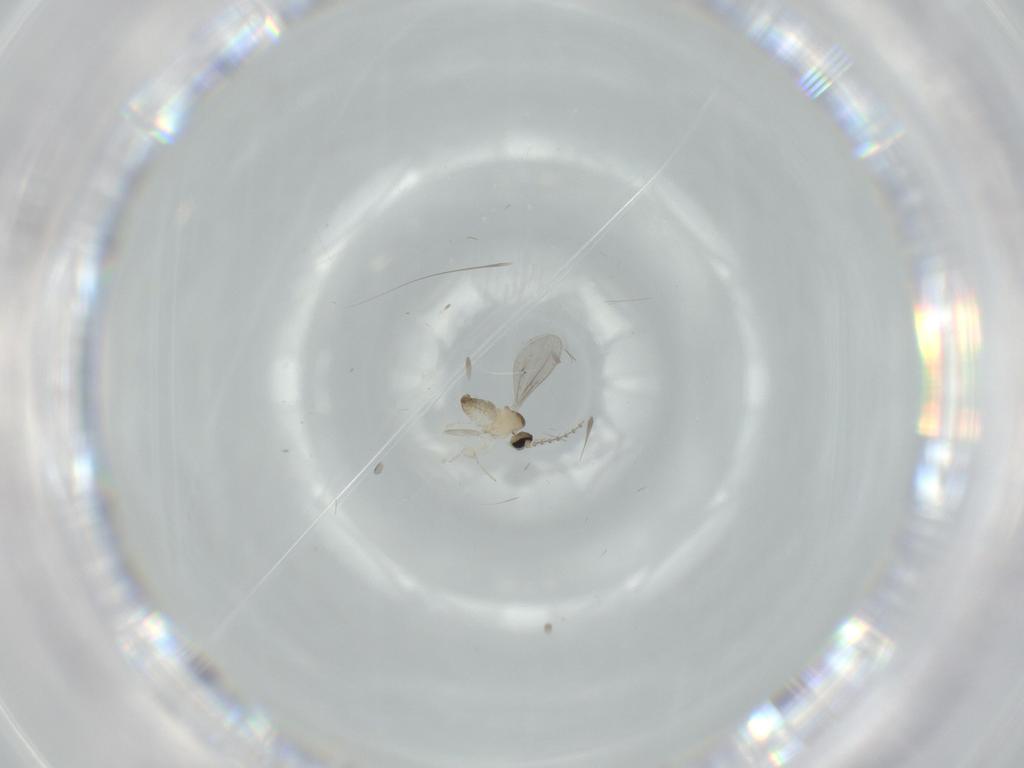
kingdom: Animalia
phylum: Arthropoda
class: Insecta
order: Diptera
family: Cecidomyiidae
